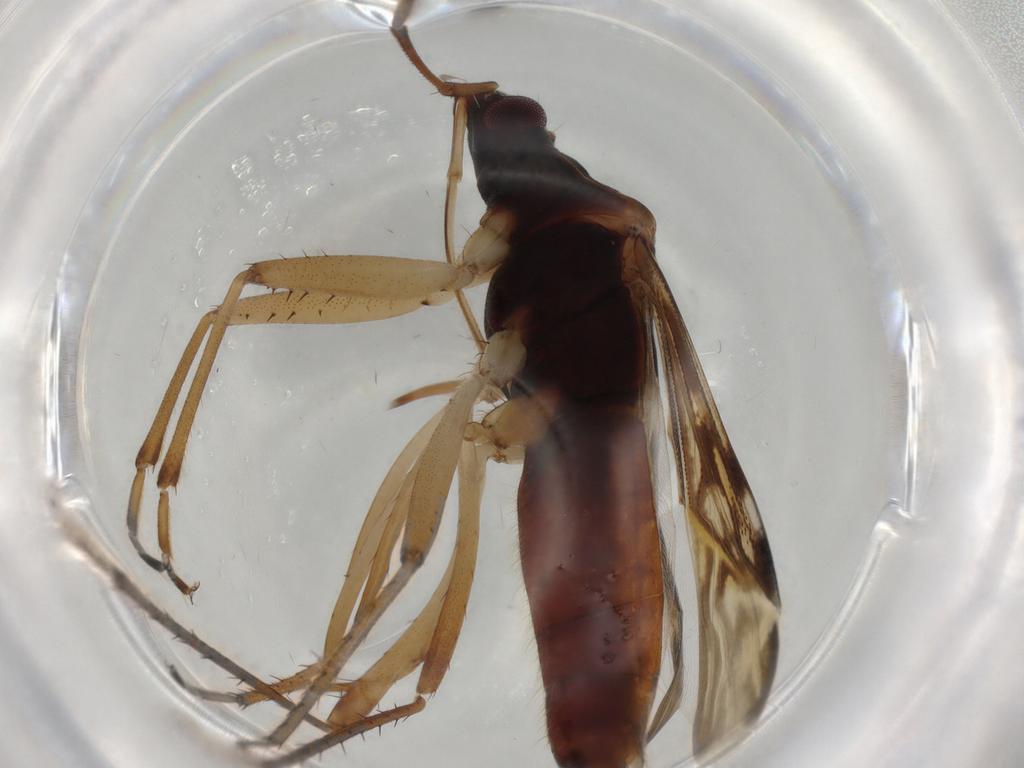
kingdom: Animalia
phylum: Arthropoda
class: Insecta
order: Hemiptera
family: Rhyparochromidae
